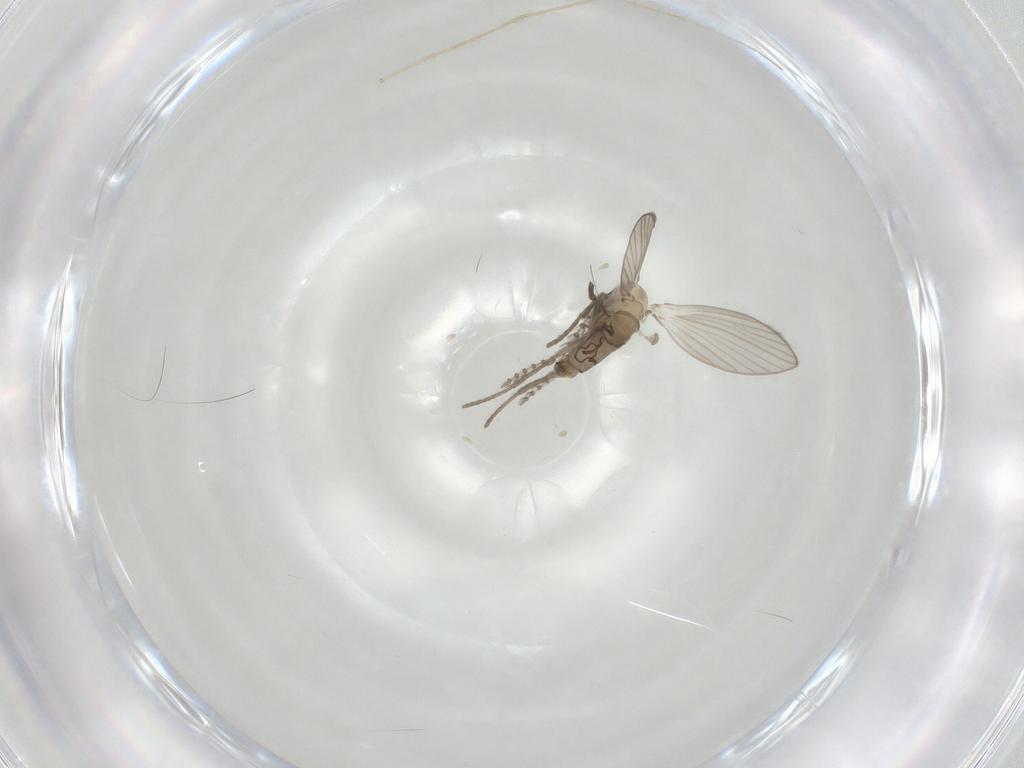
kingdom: Animalia
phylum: Arthropoda
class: Insecta
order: Diptera
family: Psychodidae
